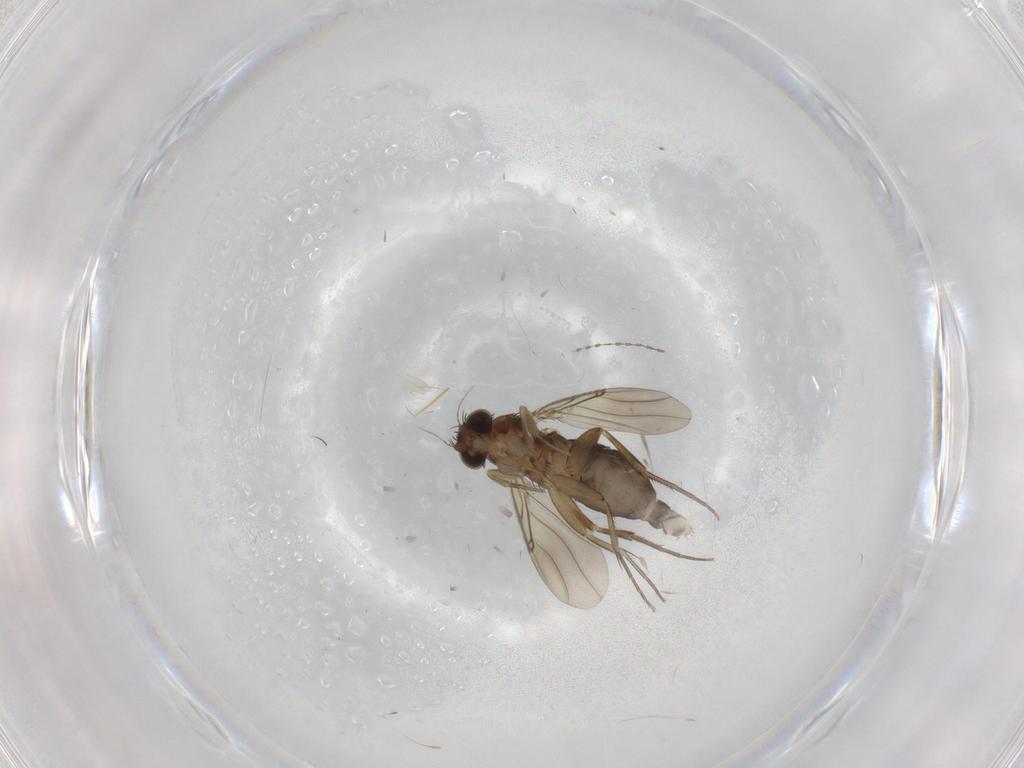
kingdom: Animalia
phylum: Arthropoda
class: Insecta
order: Diptera
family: Phoridae
